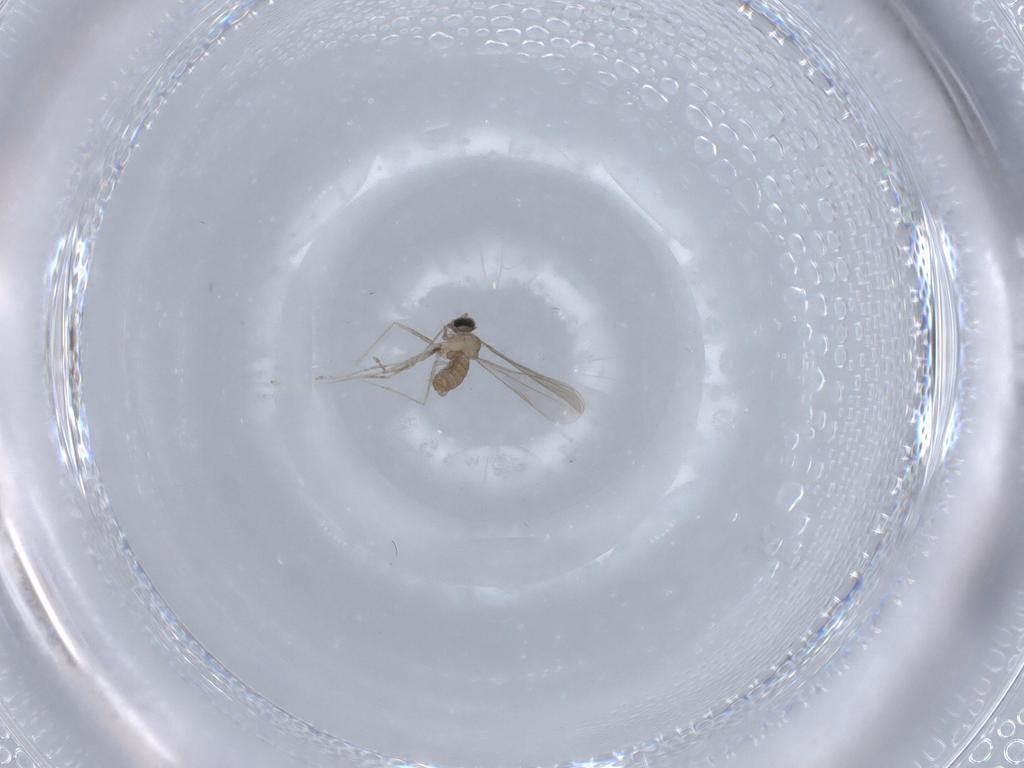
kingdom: Animalia
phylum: Arthropoda
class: Insecta
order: Diptera
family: Cecidomyiidae
